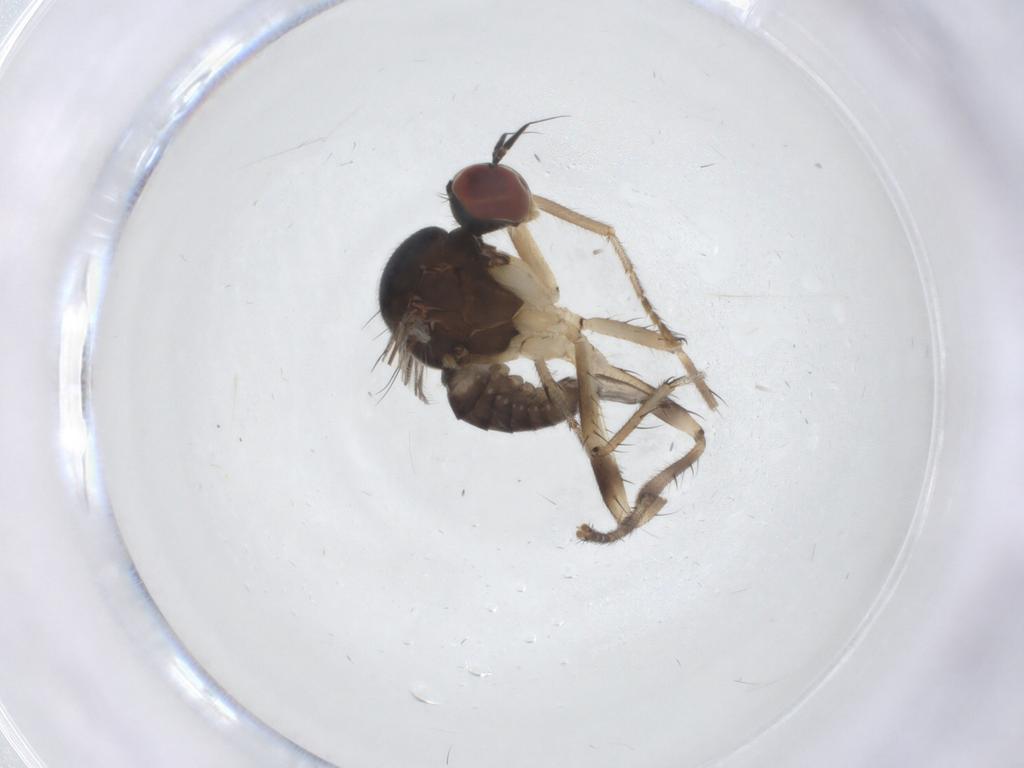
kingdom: Animalia
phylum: Arthropoda
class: Insecta
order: Diptera
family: Hybotidae
